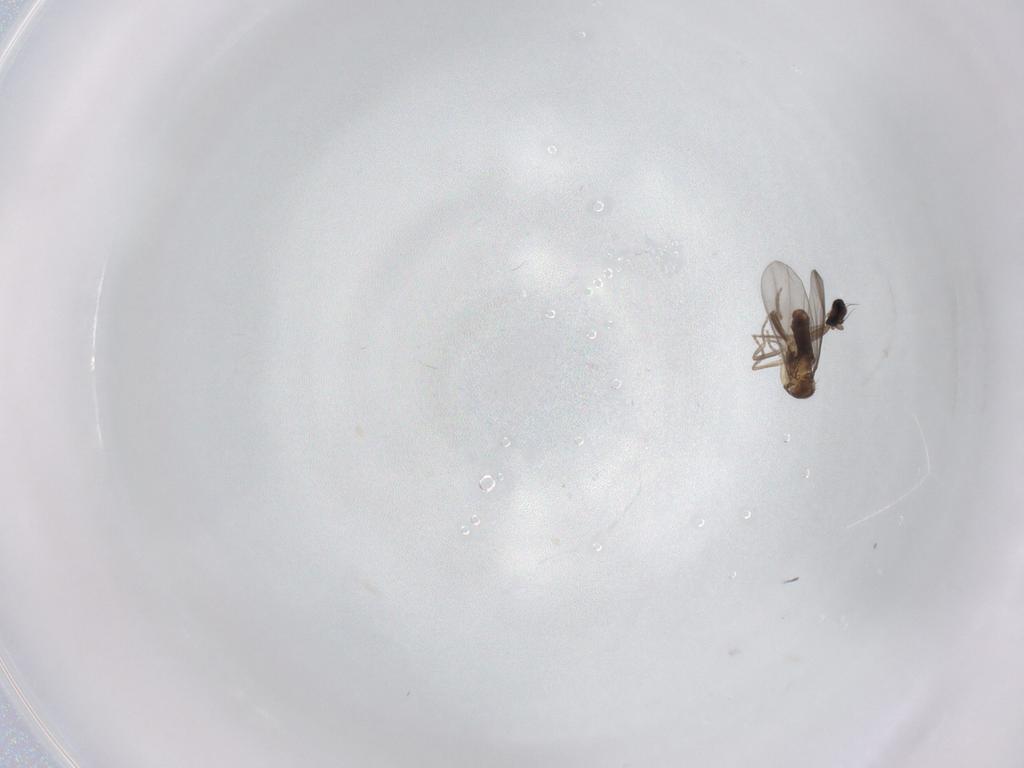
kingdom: Animalia
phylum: Arthropoda
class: Insecta
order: Diptera
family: Phoridae
